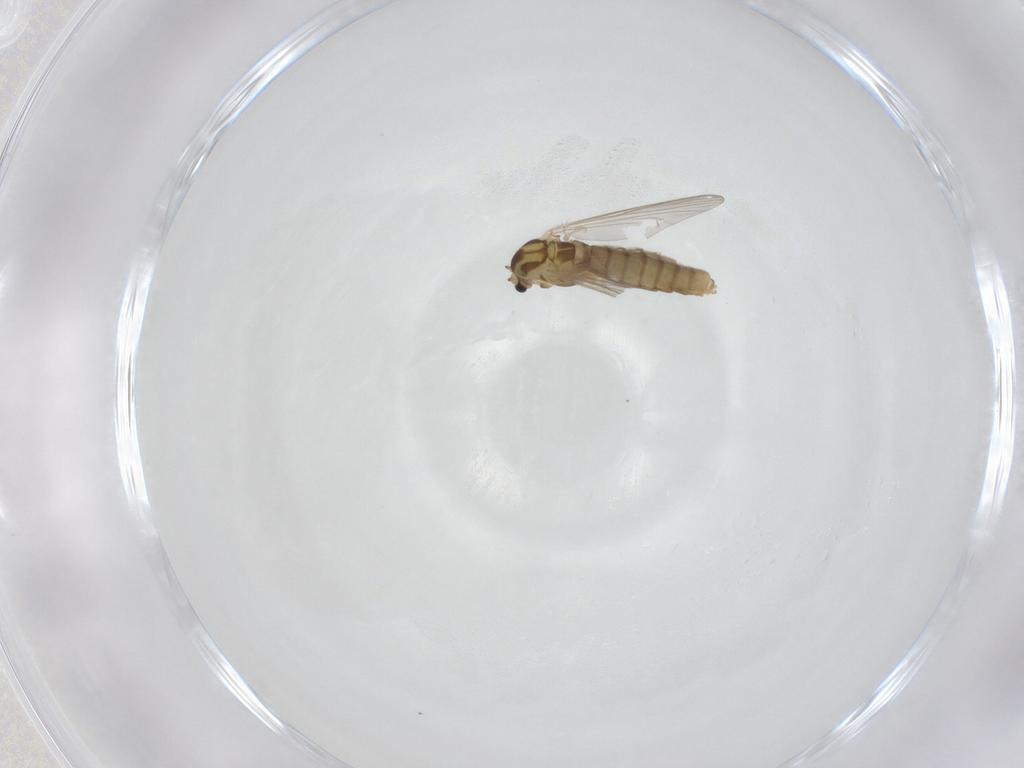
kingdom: Animalia
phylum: Arthropoda
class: Insecta
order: Diptera
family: Chironomidae
